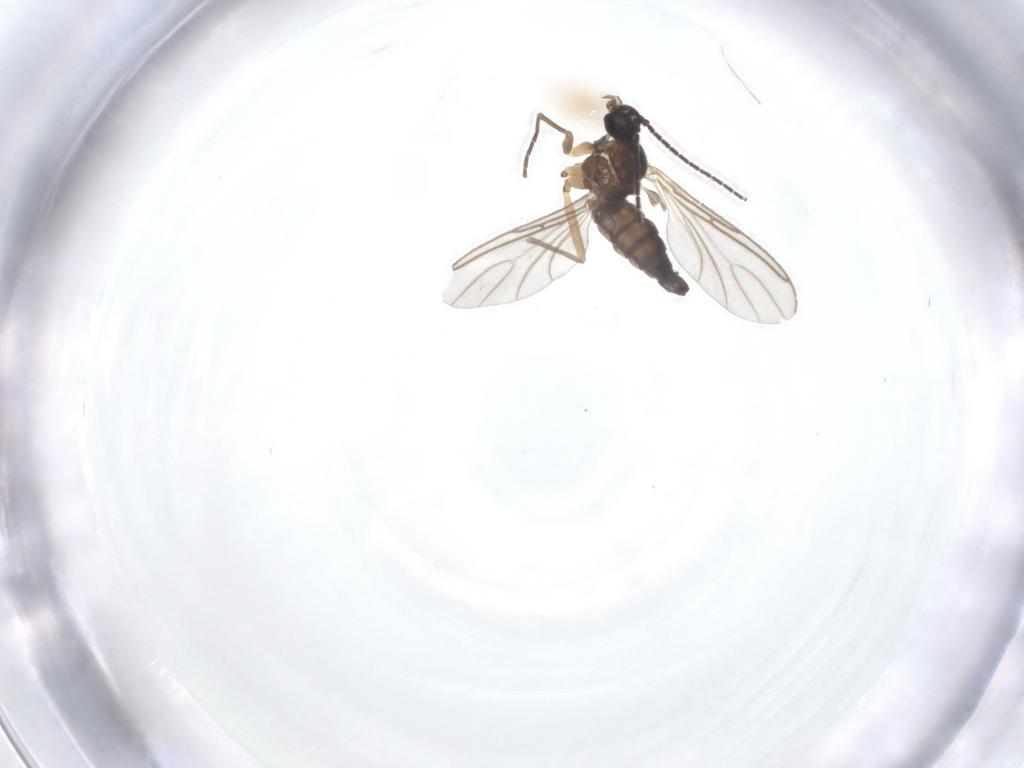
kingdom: Animalia
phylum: Arthropoda
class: Insecta
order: Diptera
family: Sciaridae
